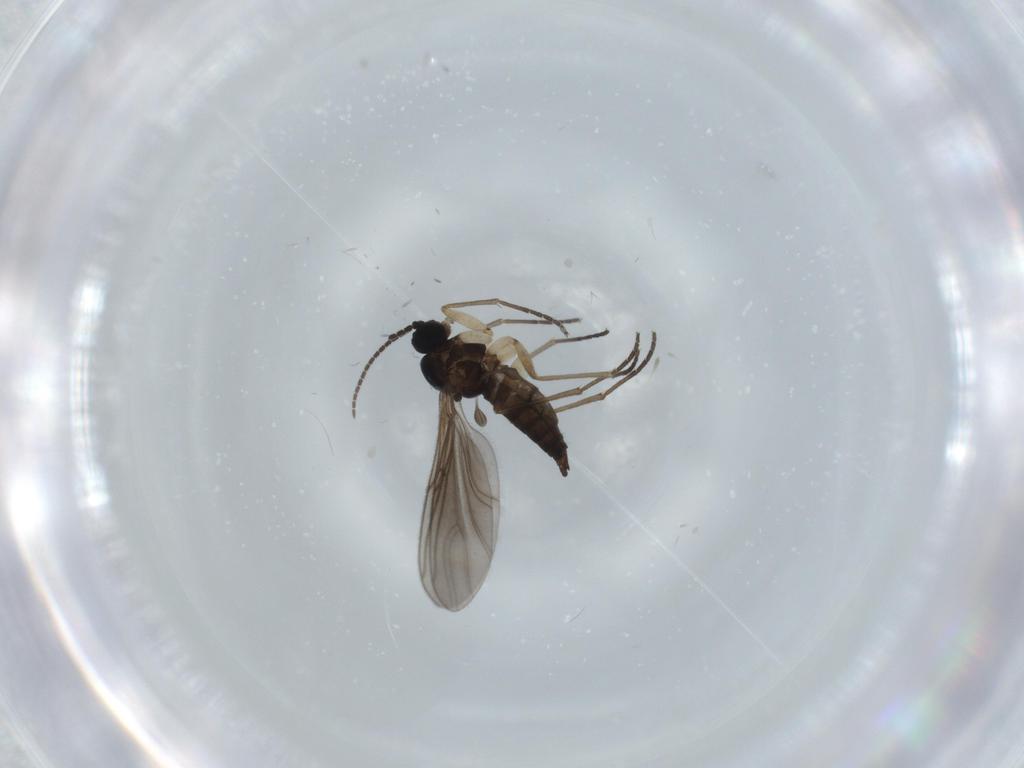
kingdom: Animalia
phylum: Arthropoda
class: Insecta
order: Diptera
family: Sciaridae
